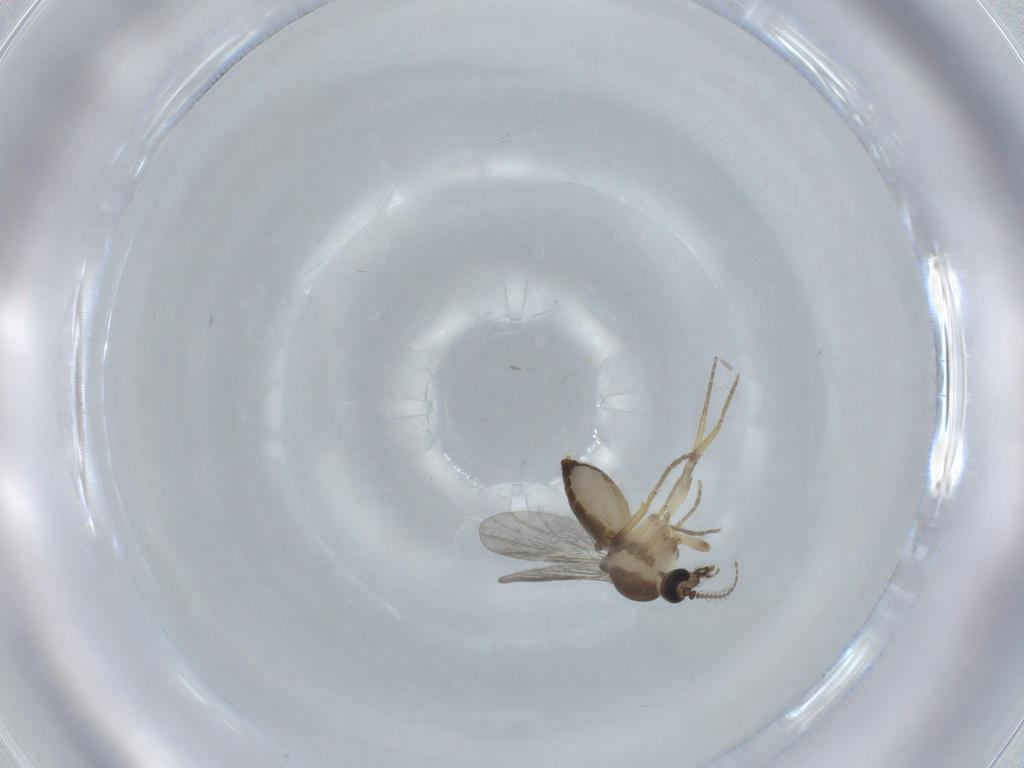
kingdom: Animalia
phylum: Arthropoda
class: Insecta
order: Diptera
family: Ceratopogonidae
